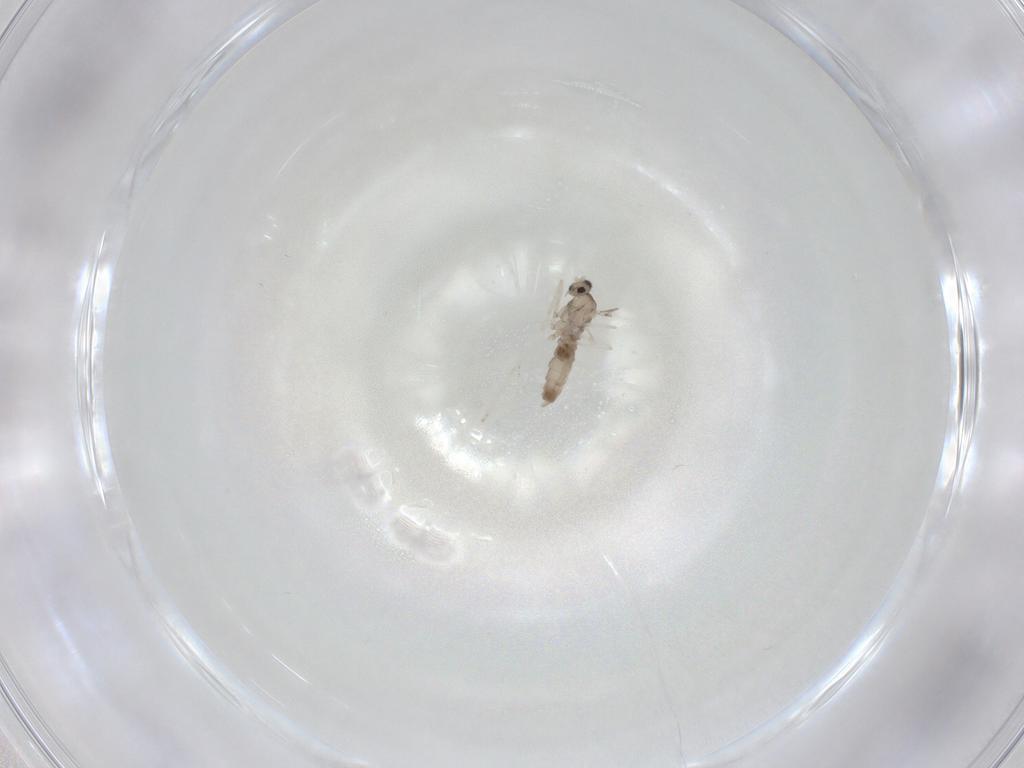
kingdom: Animalia
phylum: Arthropoda
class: Insecta
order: Diptera
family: Cecidomyiidae
